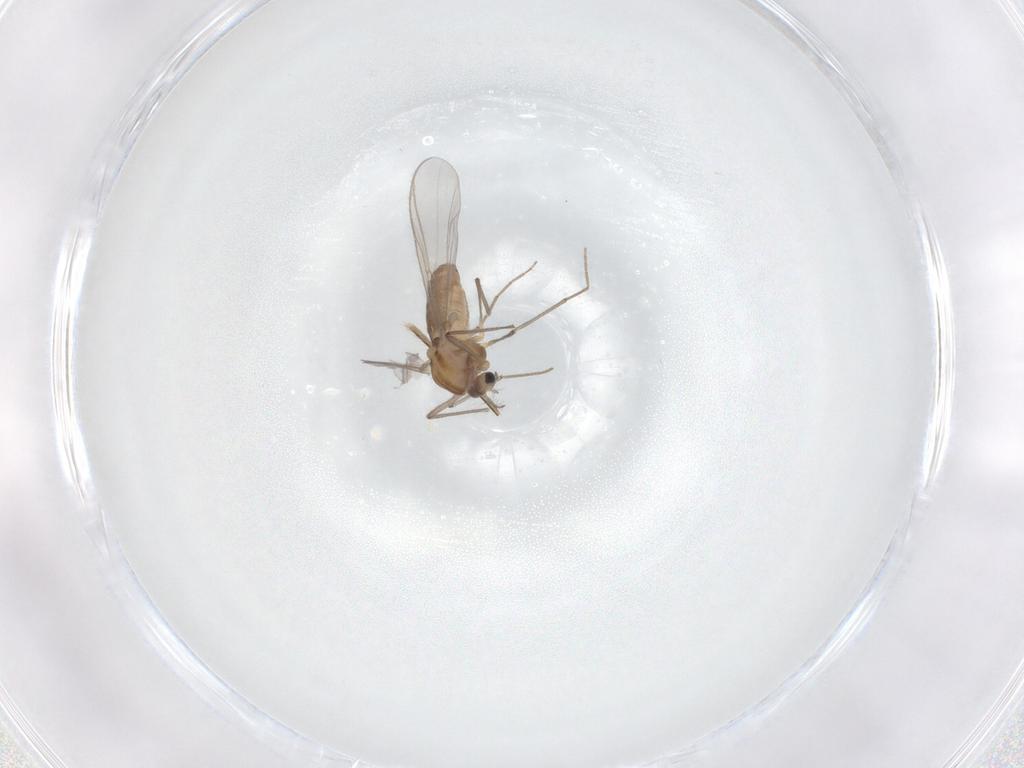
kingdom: Animalia
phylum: Arthropoda
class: Insecta
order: Diptera
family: Chironomidae
